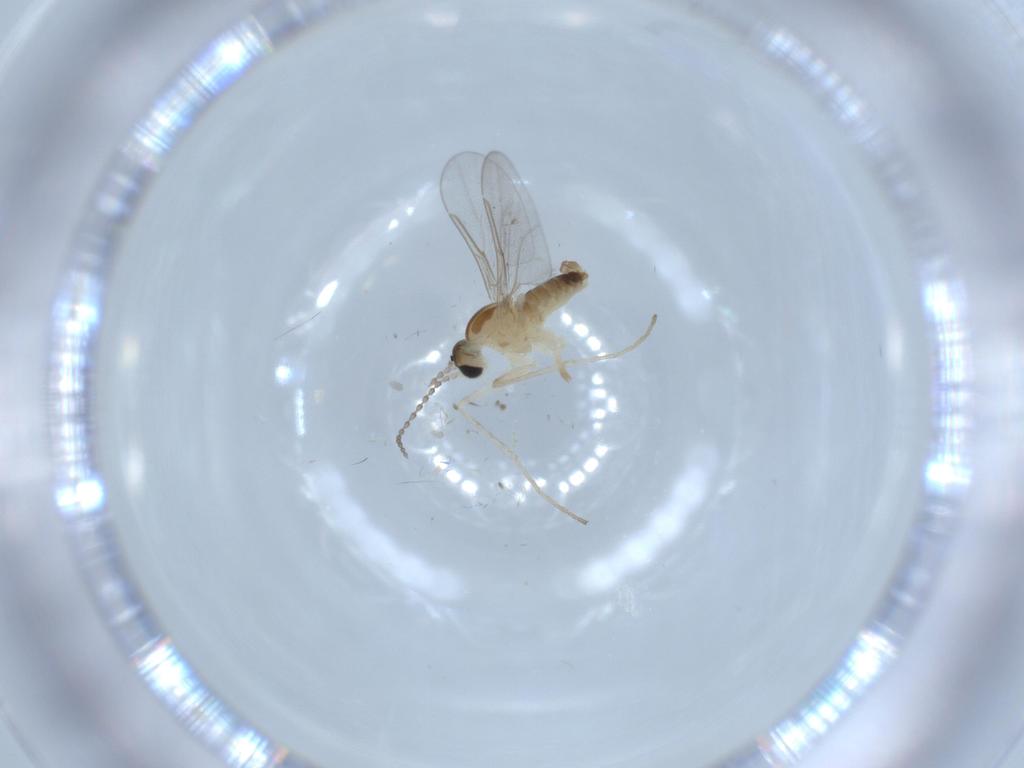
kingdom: Animalia
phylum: Arthropoda
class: Insecta
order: Diptera
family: Cecidomyiidae
